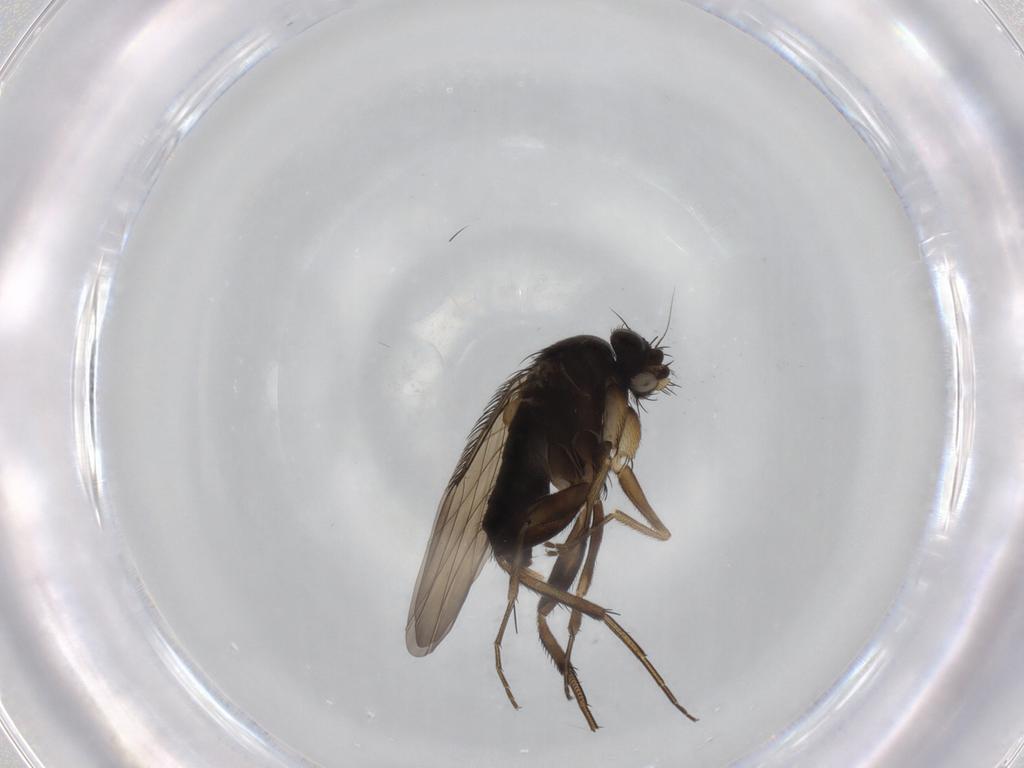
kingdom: Animalia
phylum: Arthropoda
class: Insecta
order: Diptera
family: Phoridae
